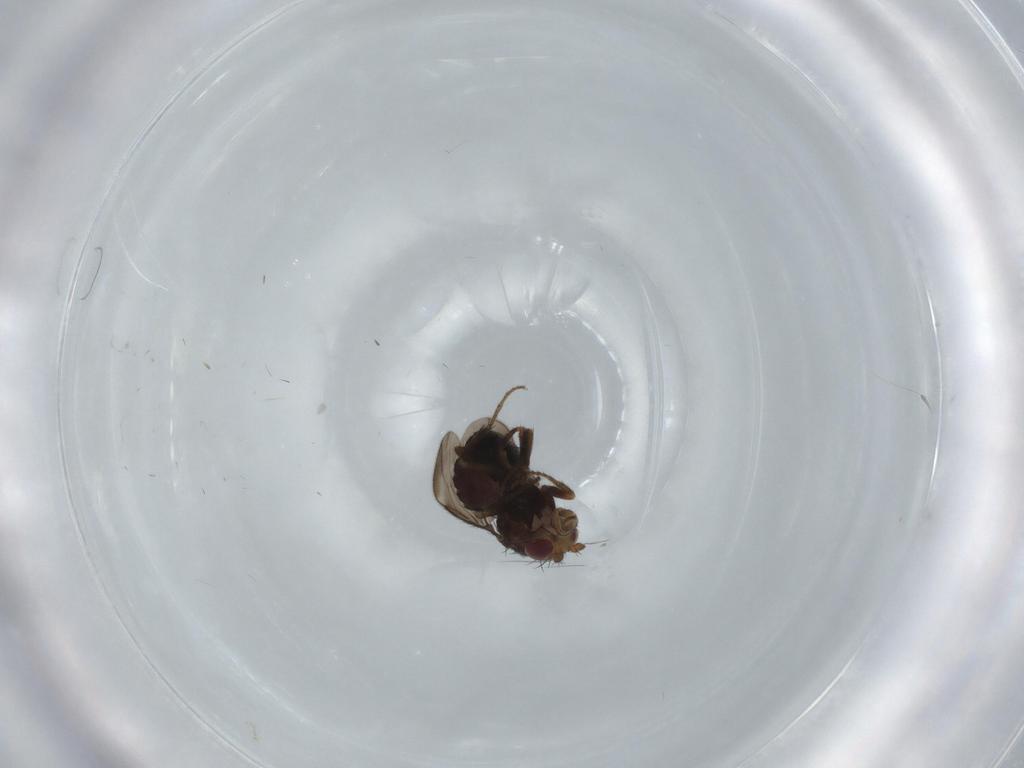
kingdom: Animalia
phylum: Arthropoda
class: Insecta
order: Diptera
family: Sphaeroceridae
